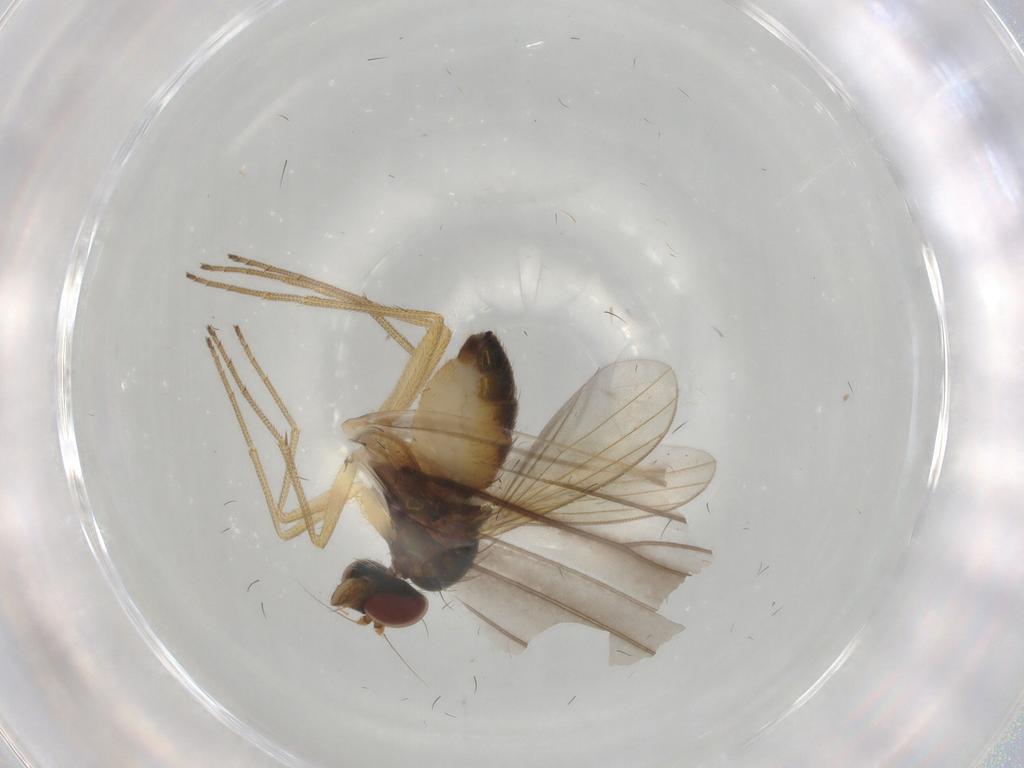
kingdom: Animalia
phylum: Arthropoda
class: Insecta
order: Diptera
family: Dolichopodidae
